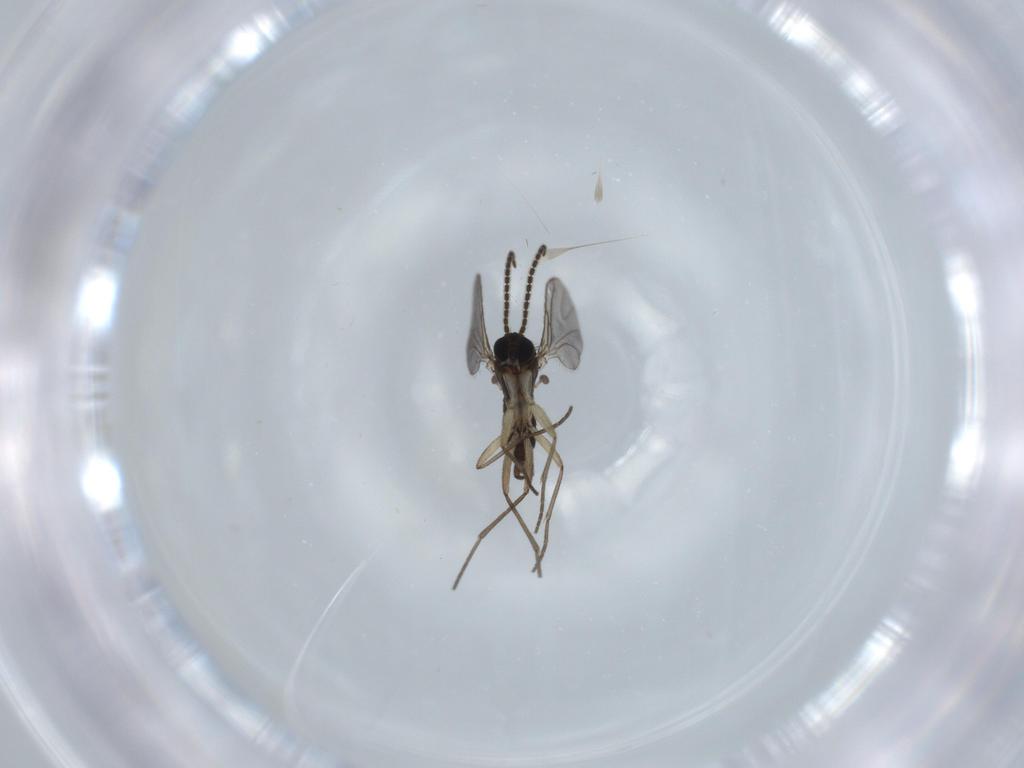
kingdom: Animalia
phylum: Arthropoda
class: Insecta
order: Diptera
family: Sciaridae
